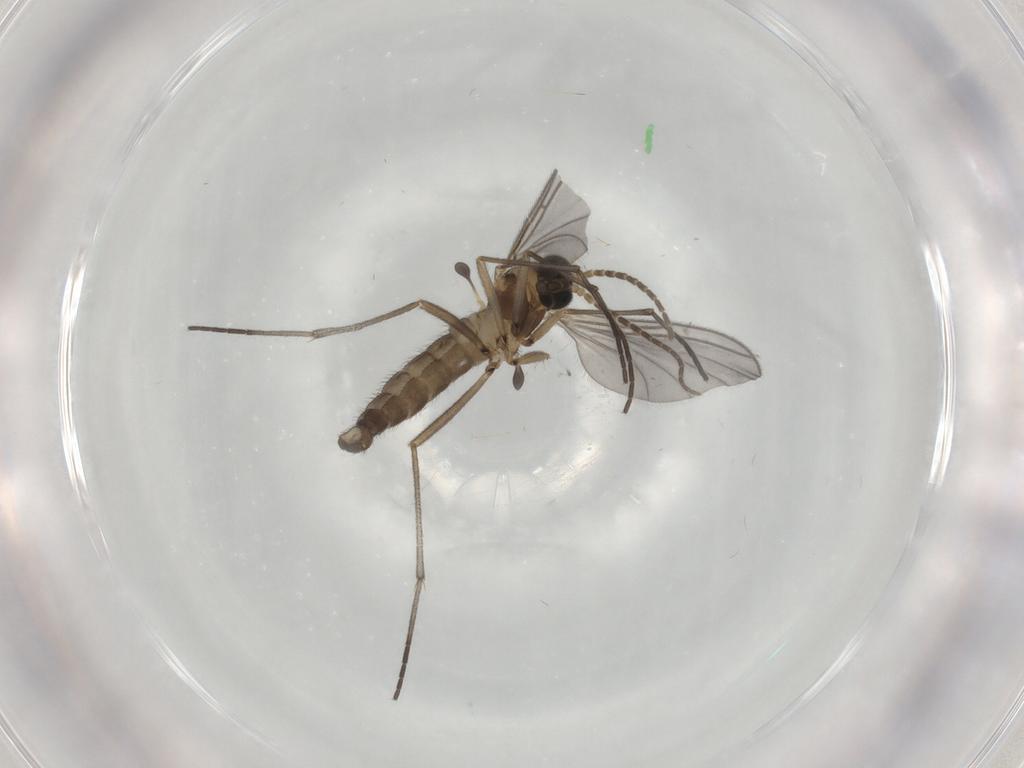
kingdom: Animalia
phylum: Arthropoda
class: Insecta
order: Diptera
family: Sciaridae
